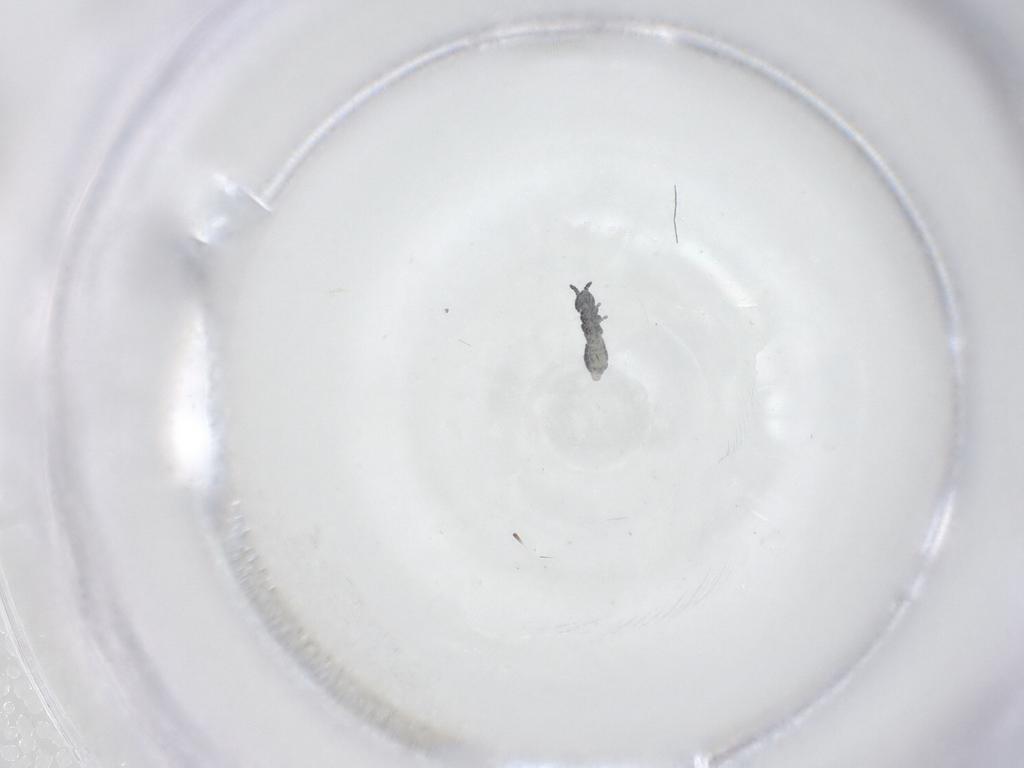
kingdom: Animalia
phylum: Arthropoda
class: Collembola
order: Poduromorpha
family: Hypogastruridae
